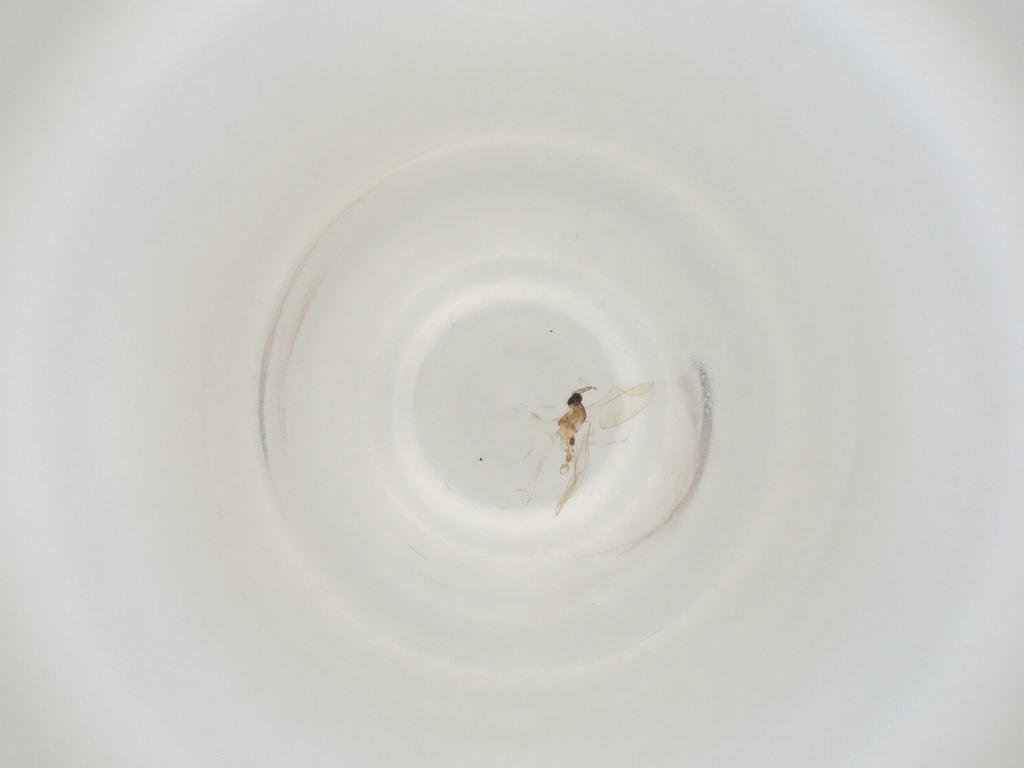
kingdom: Animalia
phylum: Arthropoda
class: Insecta
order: Diptera
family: Cecidomyiidae
